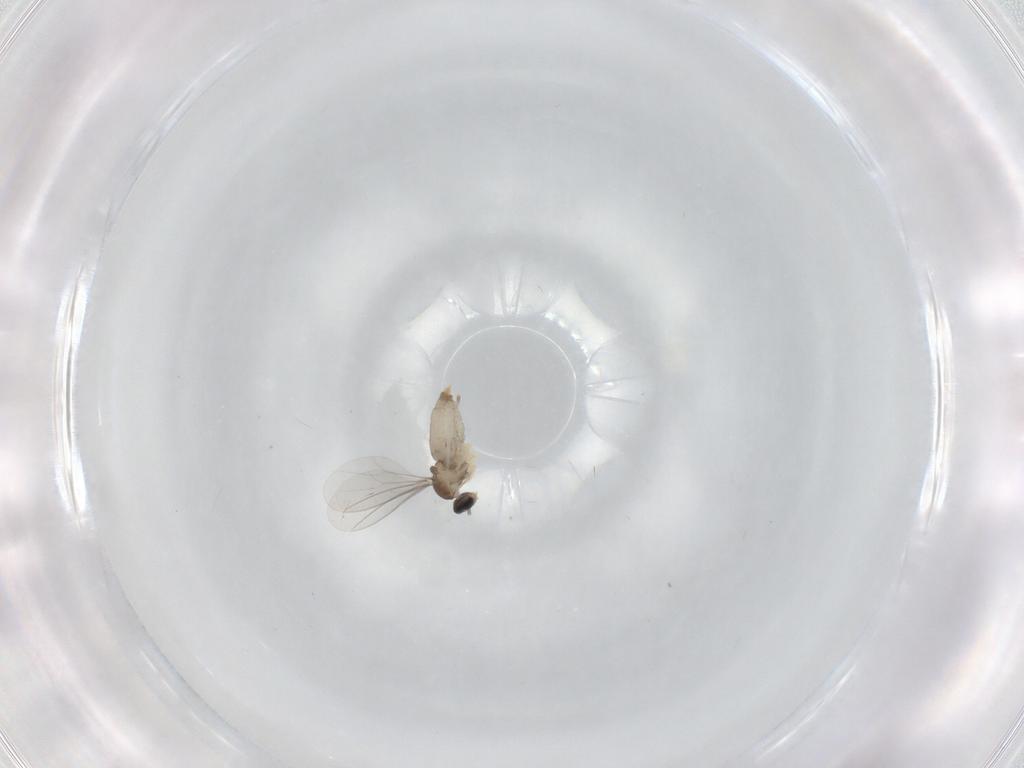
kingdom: Animalia
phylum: Arthropoda
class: Insecta
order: Diptera
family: Cecidomyiidae
